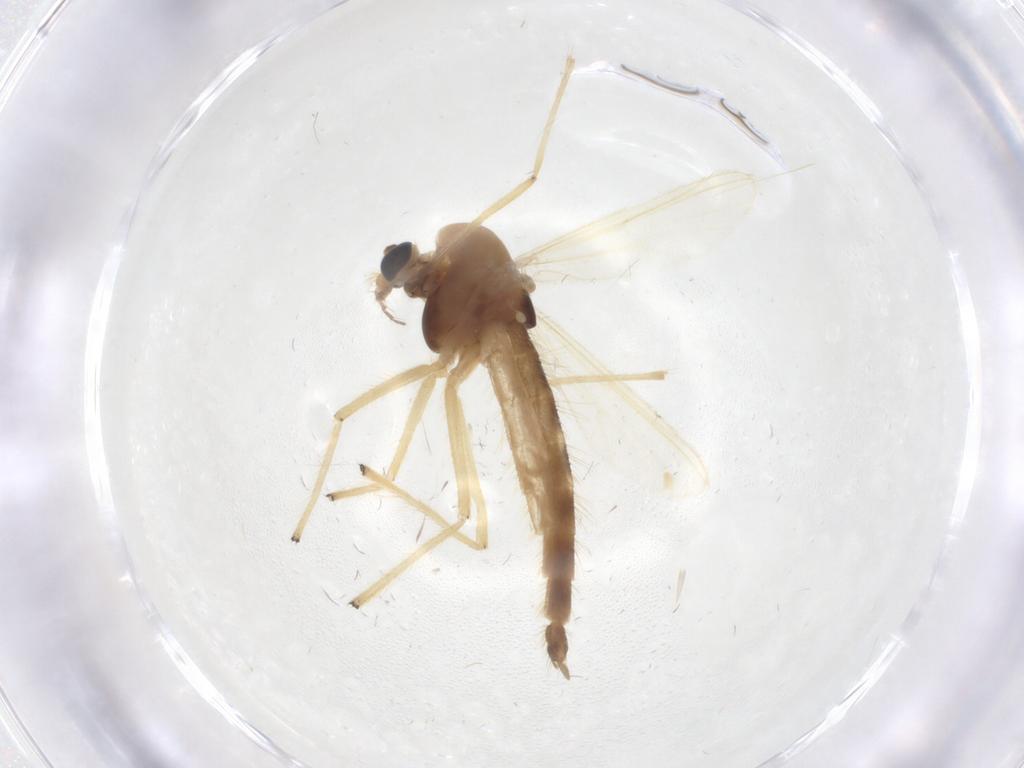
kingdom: Animalia
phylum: Arthropoda
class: Insecta
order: Diptera
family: Chironomidae
